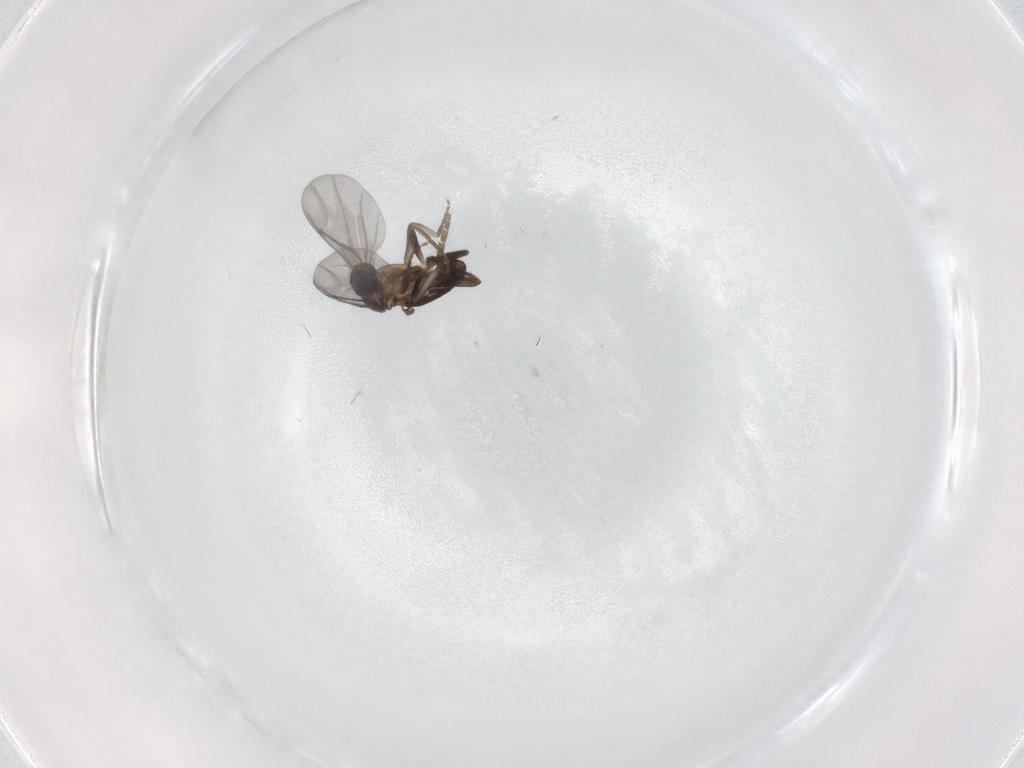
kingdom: Animalia
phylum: Arthropoda
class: Insecta
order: Diptera
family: Phoridae
